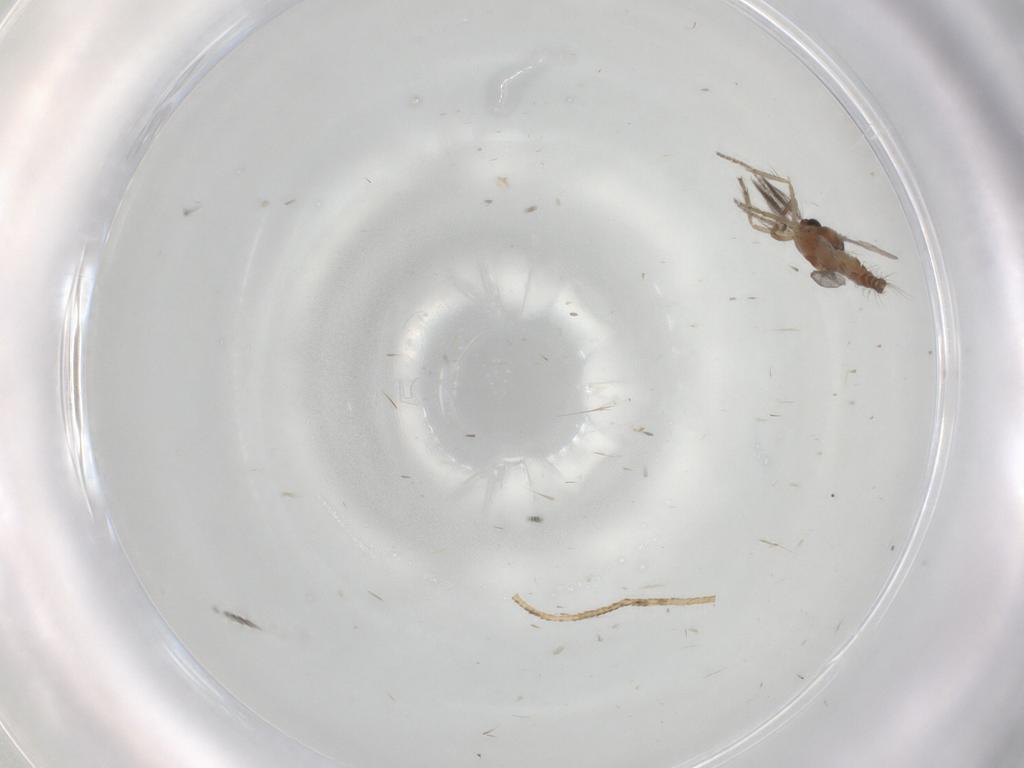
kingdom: Animalia
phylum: Arthropoda
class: Insecta
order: Diptera
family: Ceratopogonidae
